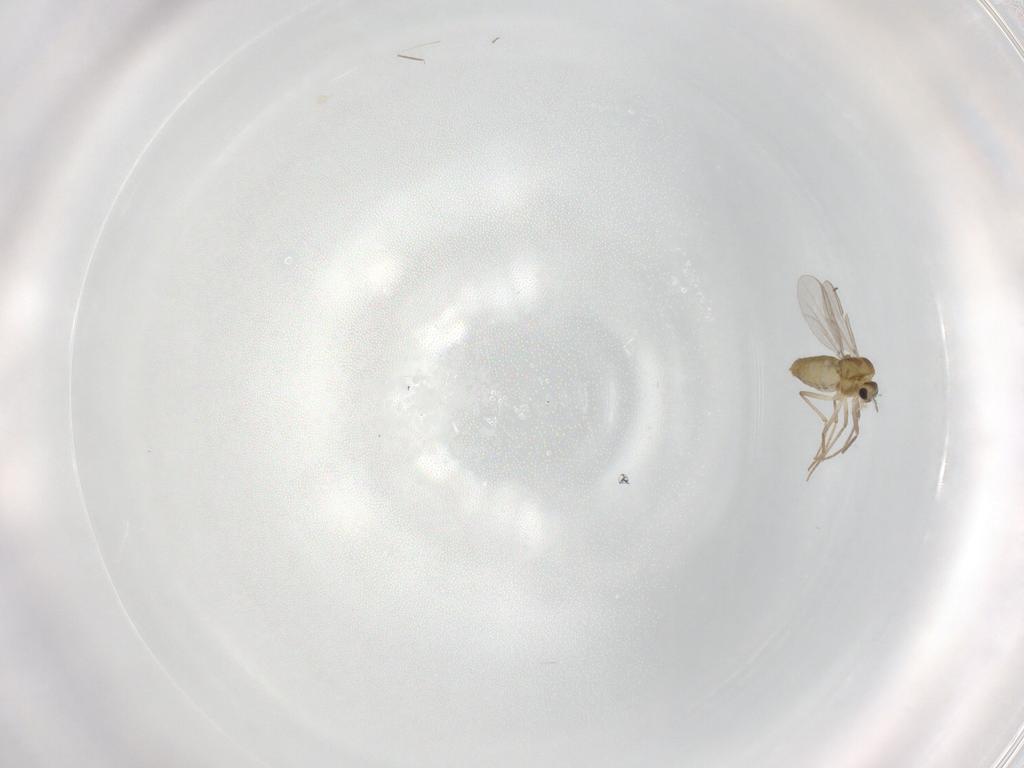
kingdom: Animalia
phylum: Arthropoda
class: Insecta
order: Diptera
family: Chironomidae
